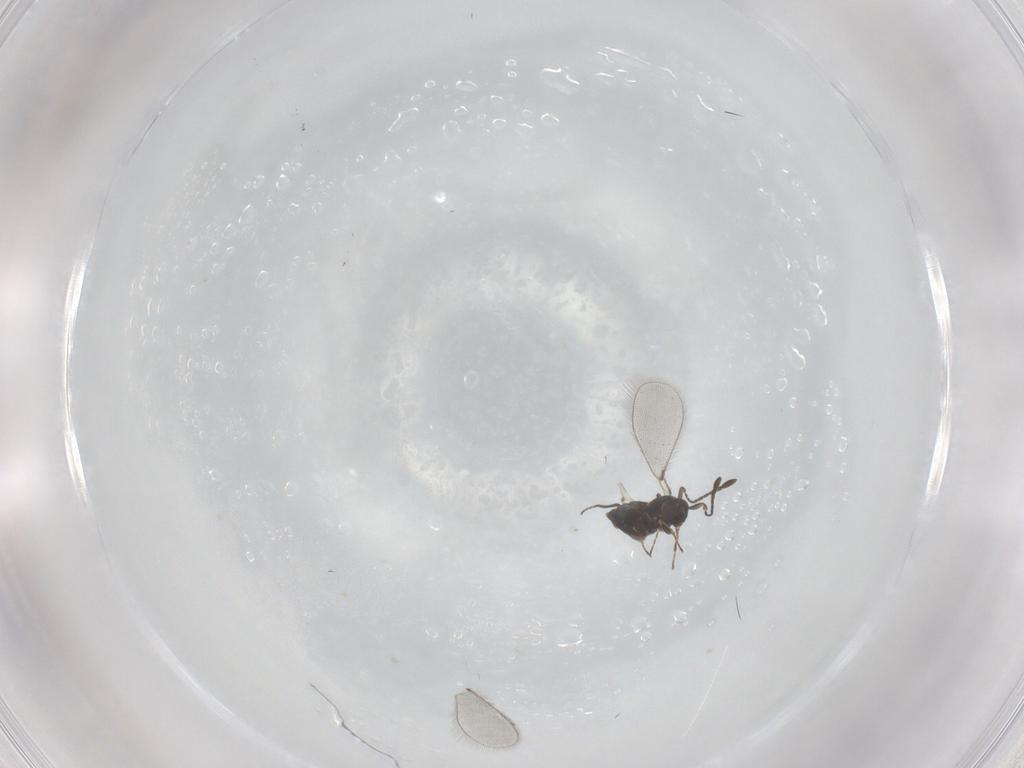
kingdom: Animalia
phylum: Arthropoda
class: Insecta
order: Hymenoptera
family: Mymaridae
